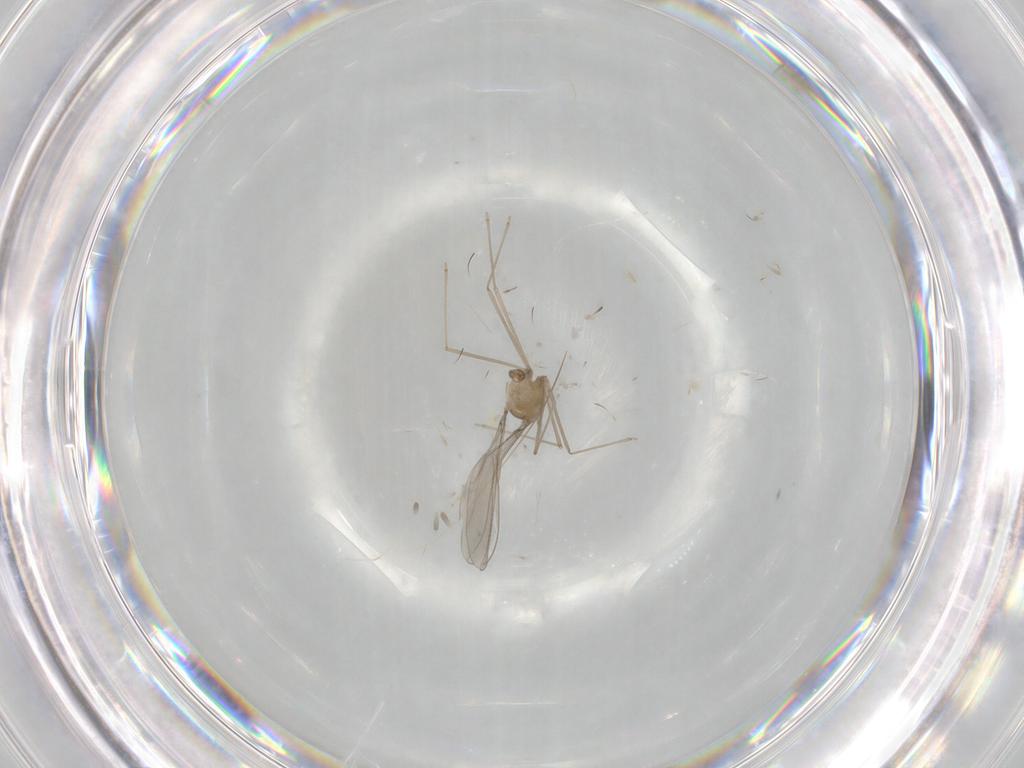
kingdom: Animalia
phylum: Arthropoda
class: Insecta
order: Diptera
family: Cecidomyiidae
